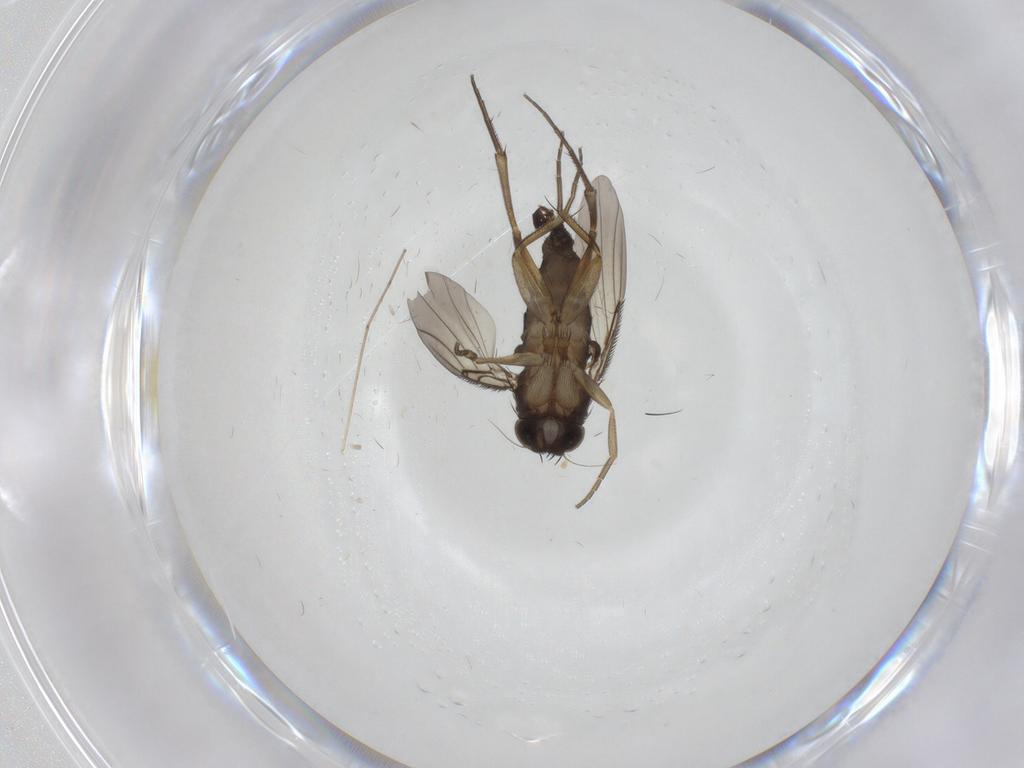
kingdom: Animalia
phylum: Arthropoda
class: Insecta
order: Diptera
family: Phoridae
